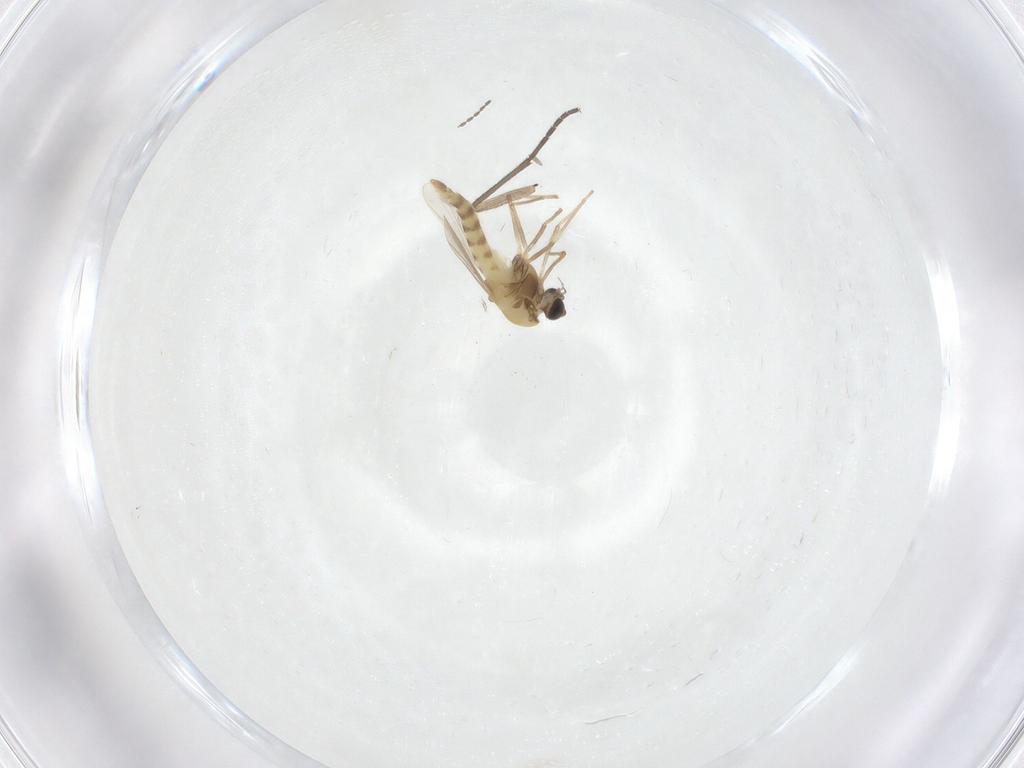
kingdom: Animalia
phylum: Arthropoda
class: Insecta
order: Diptera
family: Chironomidae
